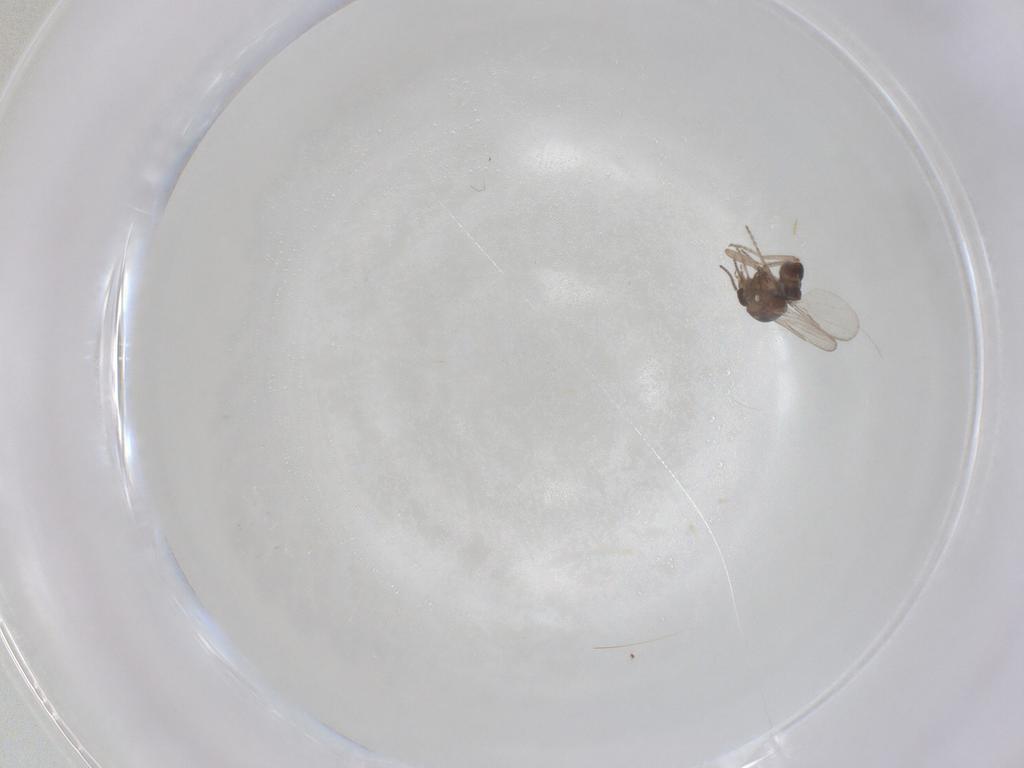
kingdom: Animalia
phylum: Arthropoda
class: Insecta
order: Diptera
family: Ceratopogonidae
